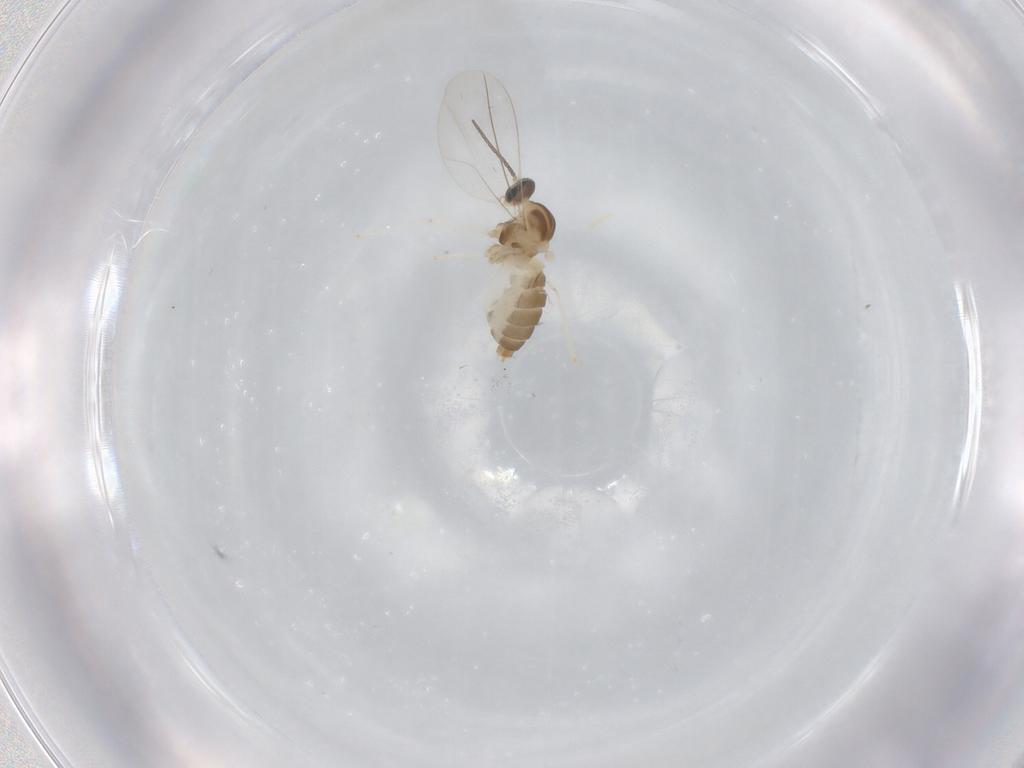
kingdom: Animalia
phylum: Arthropoda
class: Insecta
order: Diptera
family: Cecidomyiidae
